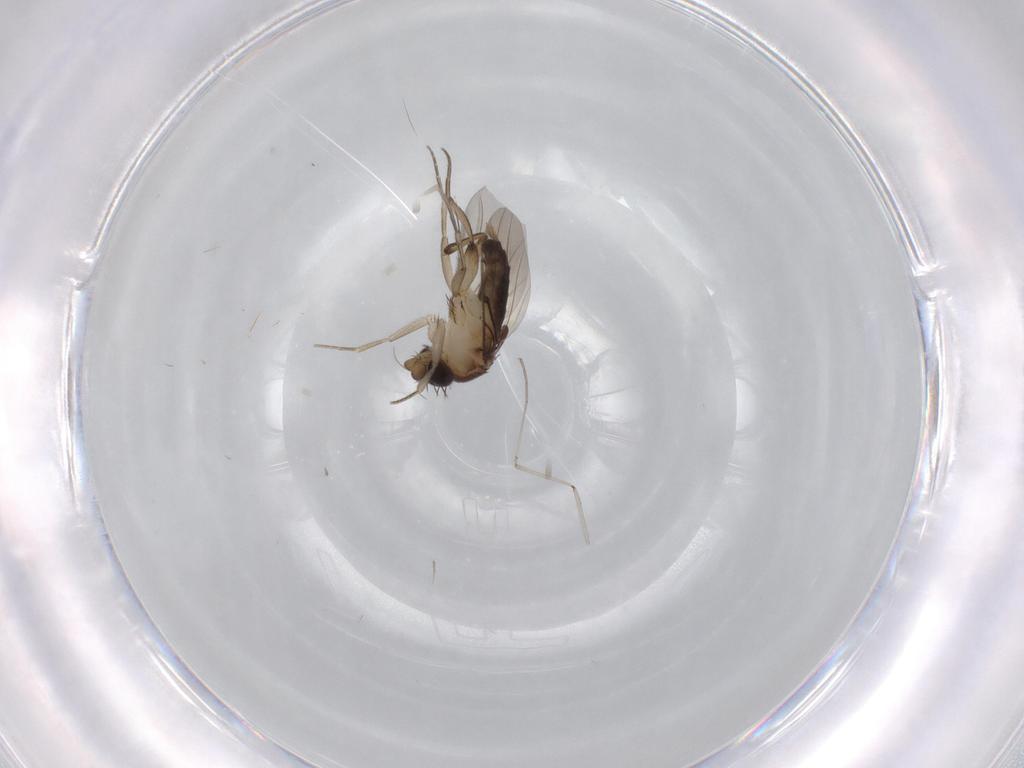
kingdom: Animalia
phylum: Arthropoda
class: Insecta
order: Diptera
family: Phoridae
